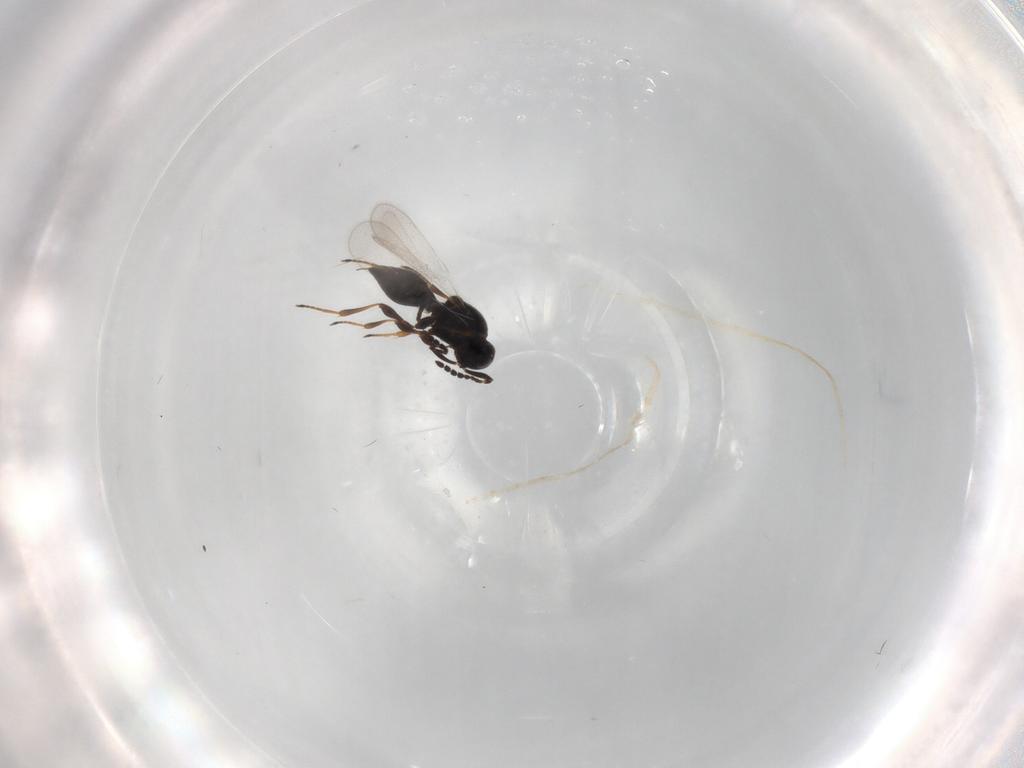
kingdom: Animalia
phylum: Arthropoda
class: Insecta
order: Hymenoptera
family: Platygastridae
